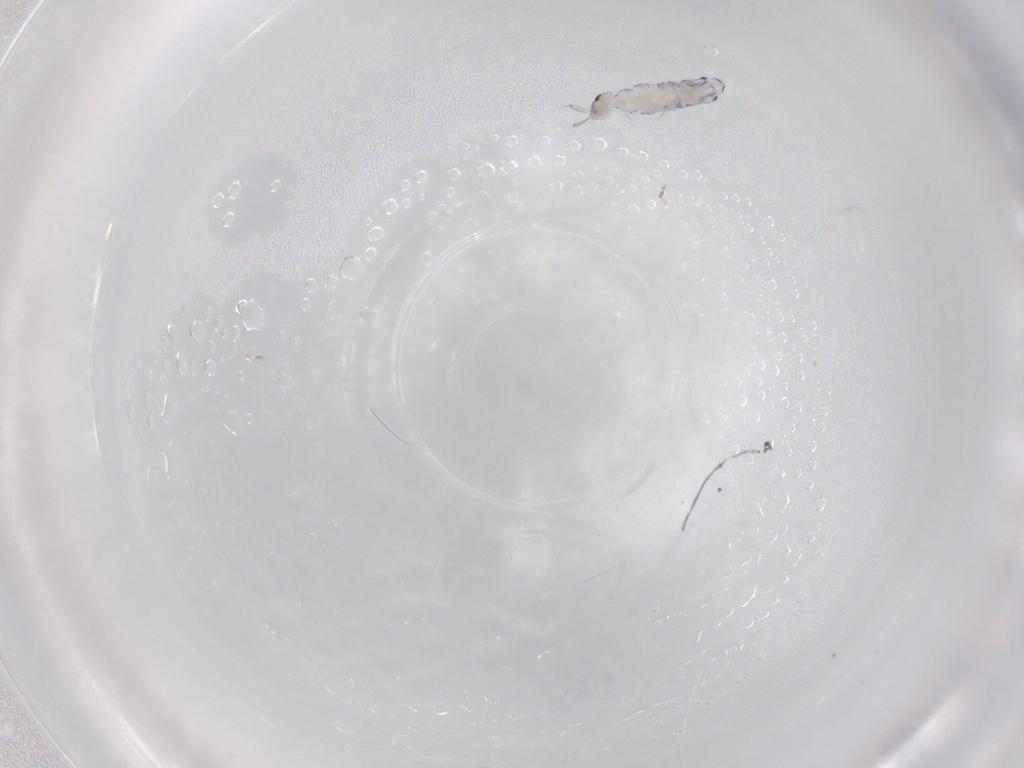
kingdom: Animalia
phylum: Arthropoda
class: Collembola
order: Entomobryomorpha
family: Entomobryidae
